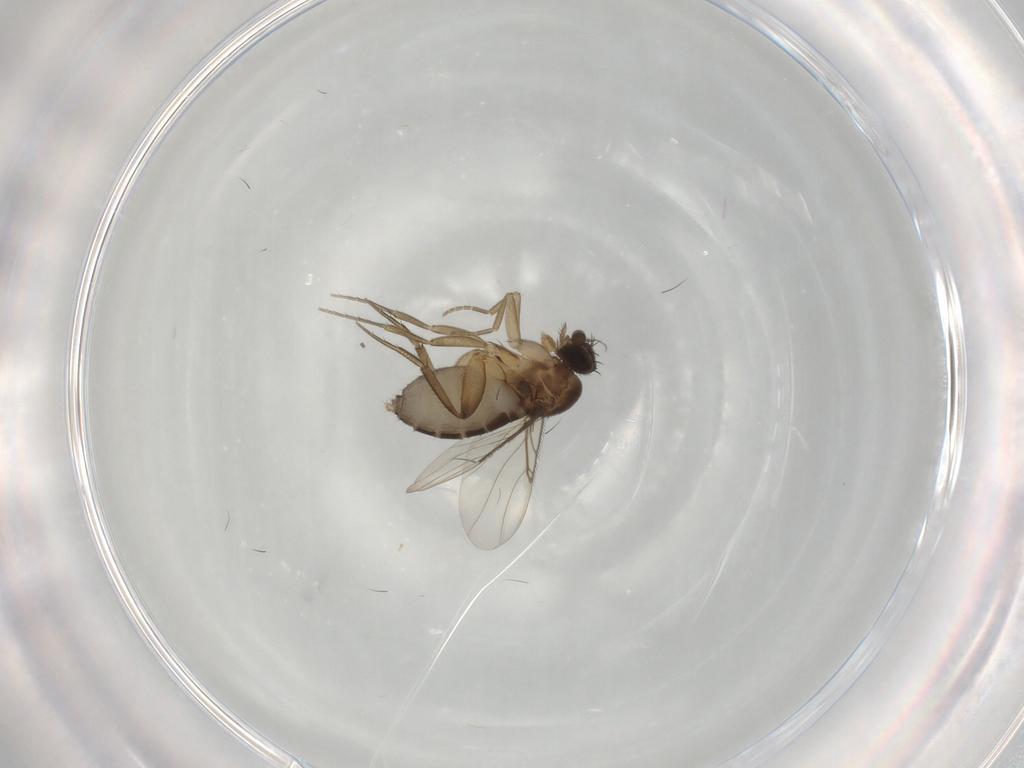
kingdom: Animalia
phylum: Arthropoda
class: Insecta
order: Diptera
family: Phoridae
